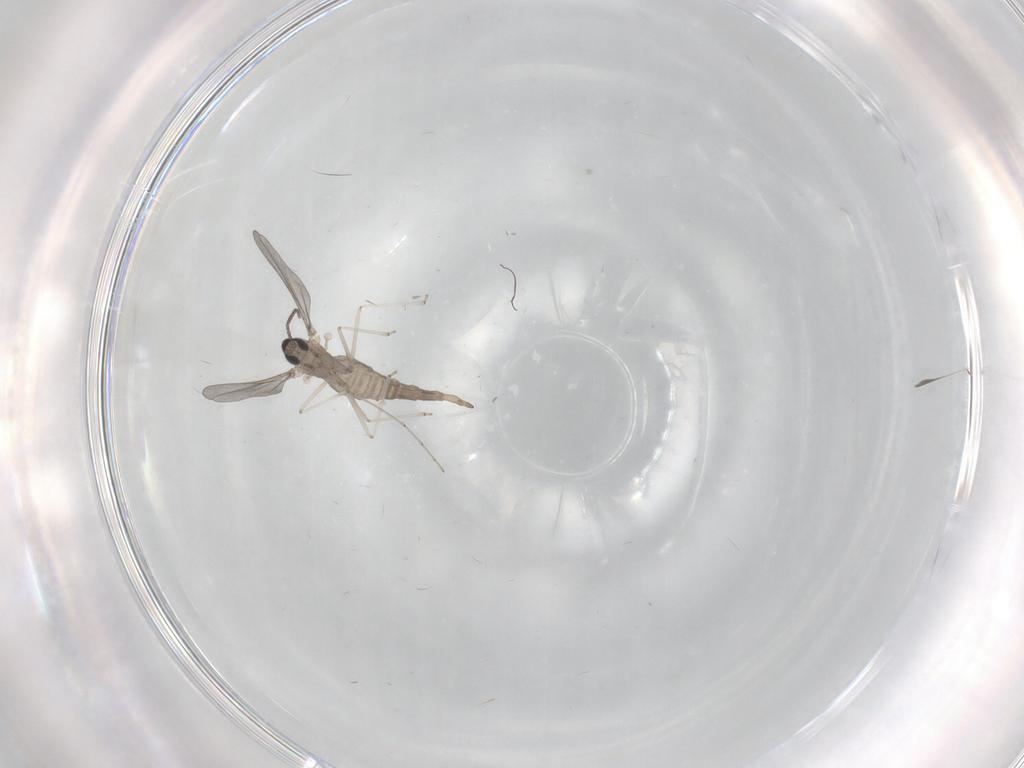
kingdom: Animalia
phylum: Arthropoda
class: Insecta
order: Diptera
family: Cecidomyiidae
